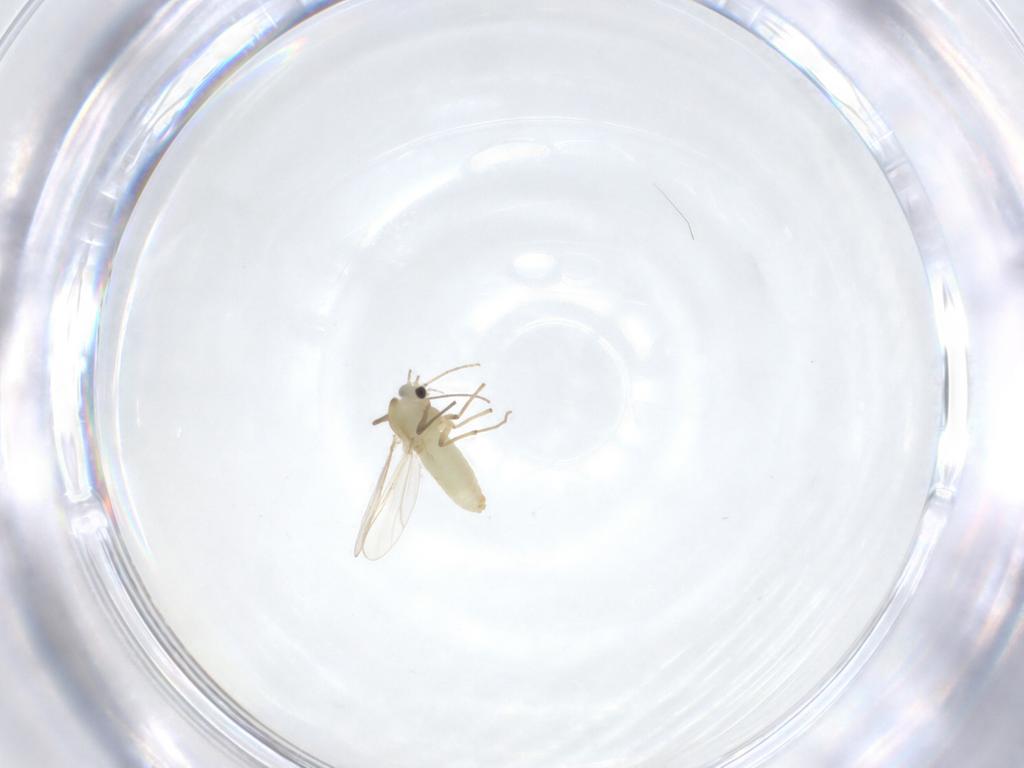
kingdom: Animalia
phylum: Arthropoda
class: Insecta
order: Diptera
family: Chironomidae
